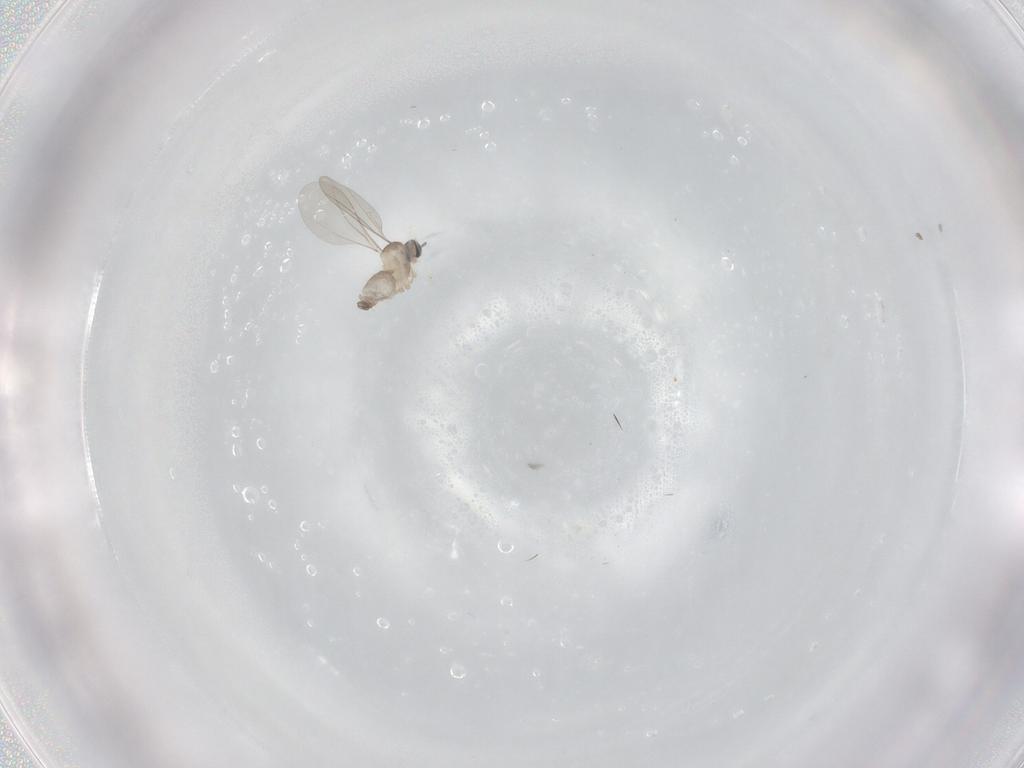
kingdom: Animalia
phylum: Arthropoda
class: Insecta
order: Diptera
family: Cecidomyiidae
